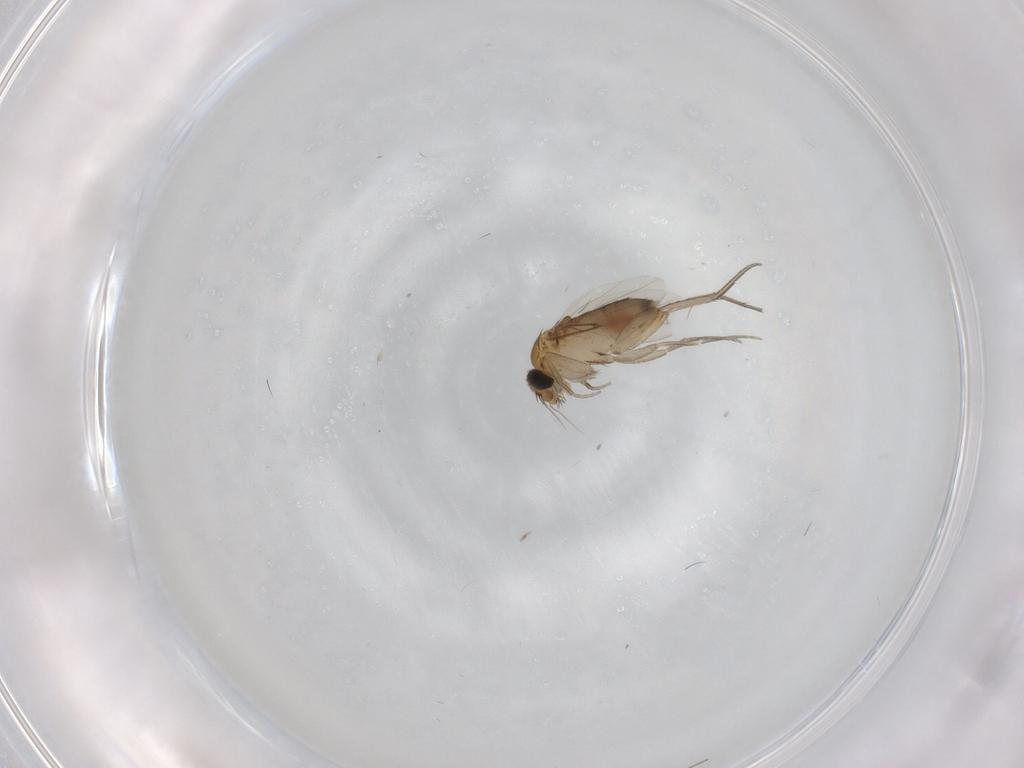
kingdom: Animalia
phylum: Arthropoda
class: Insecta
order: Diptera
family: Phoridae
